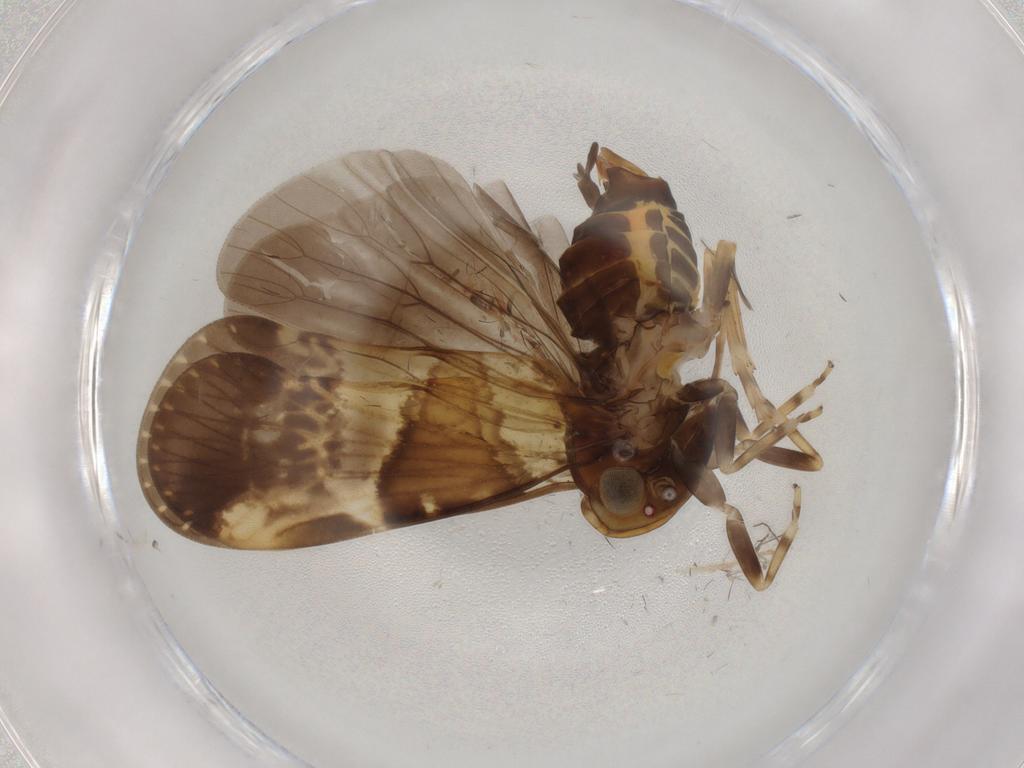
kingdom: Animalia
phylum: Arthropoda
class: Insecta
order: Hemiptera
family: Cixiidae
